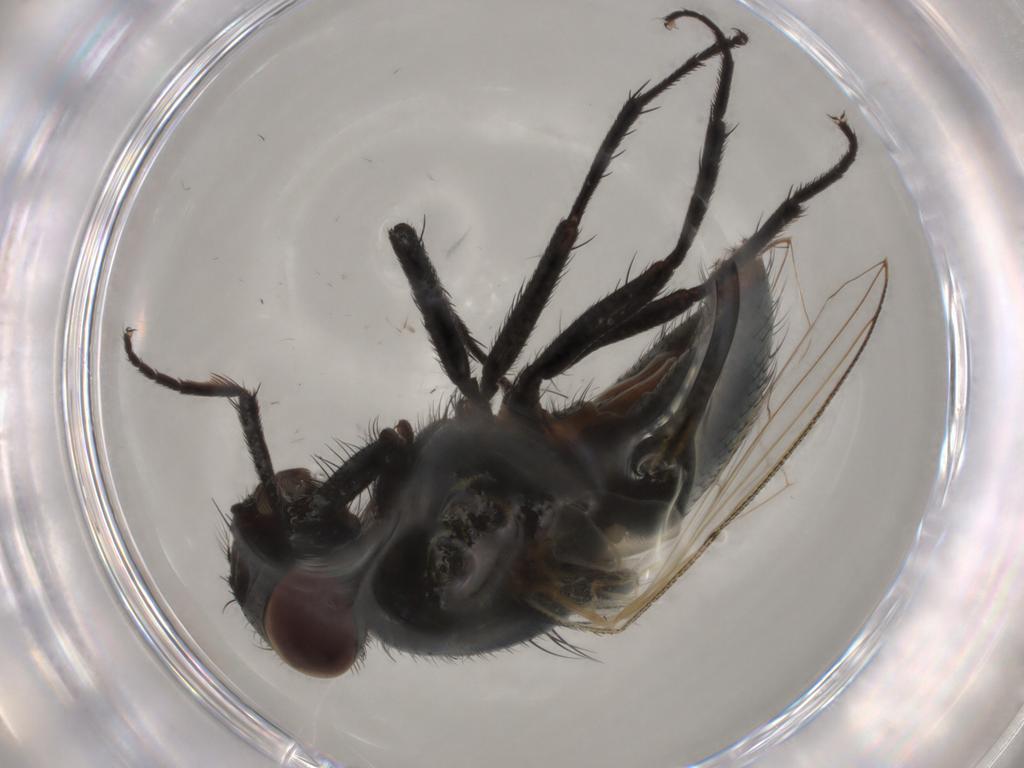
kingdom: Animalia
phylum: Arthropoda
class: Insecta
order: Diptera
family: Muscidae
